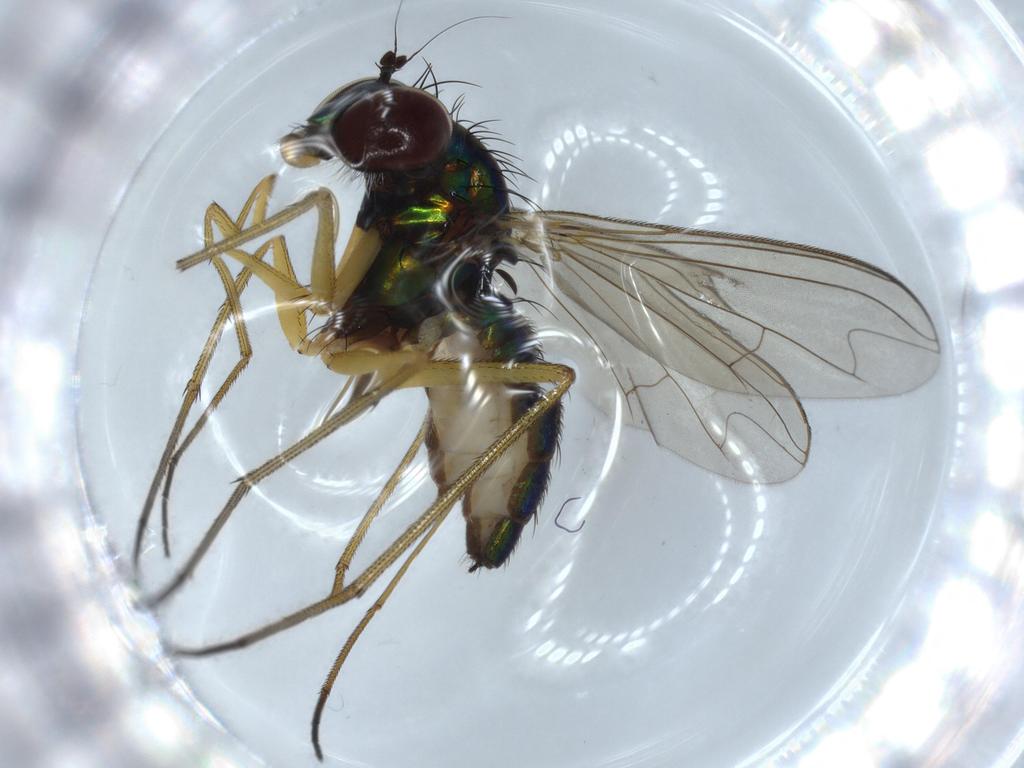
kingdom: Animalia
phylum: Arthropoda
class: Insecta
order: Diptera
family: Dolichopodidae
